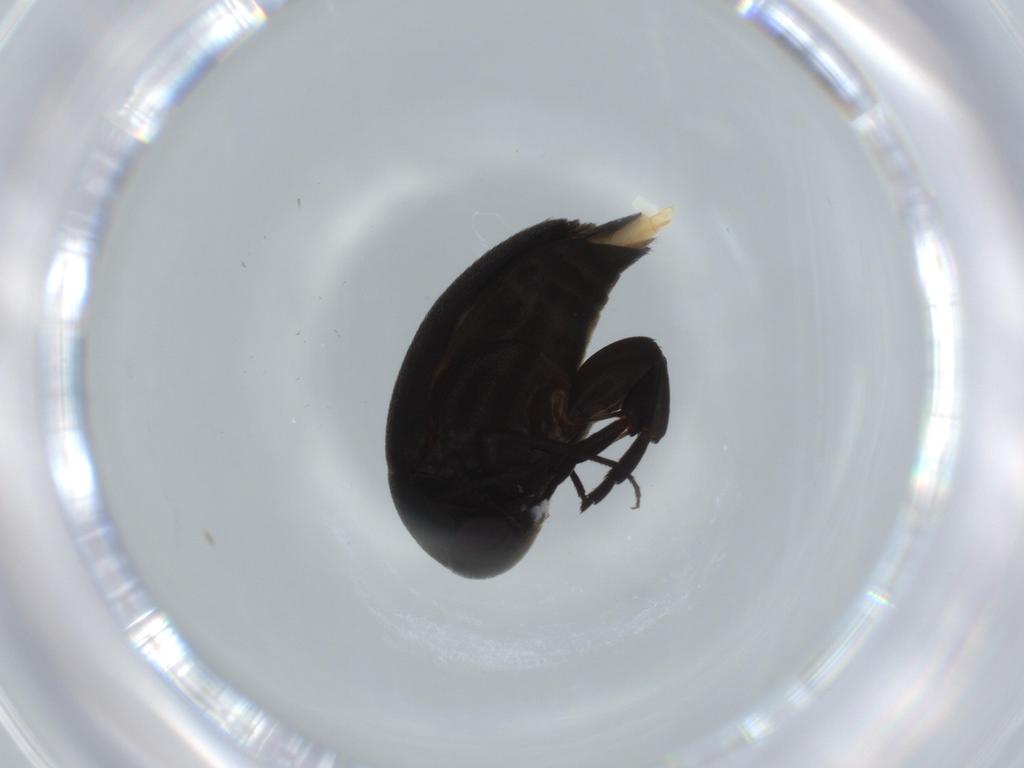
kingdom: Animalia
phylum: Arthropoda
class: Insecta
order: Coleoptera
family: Mordellidae
